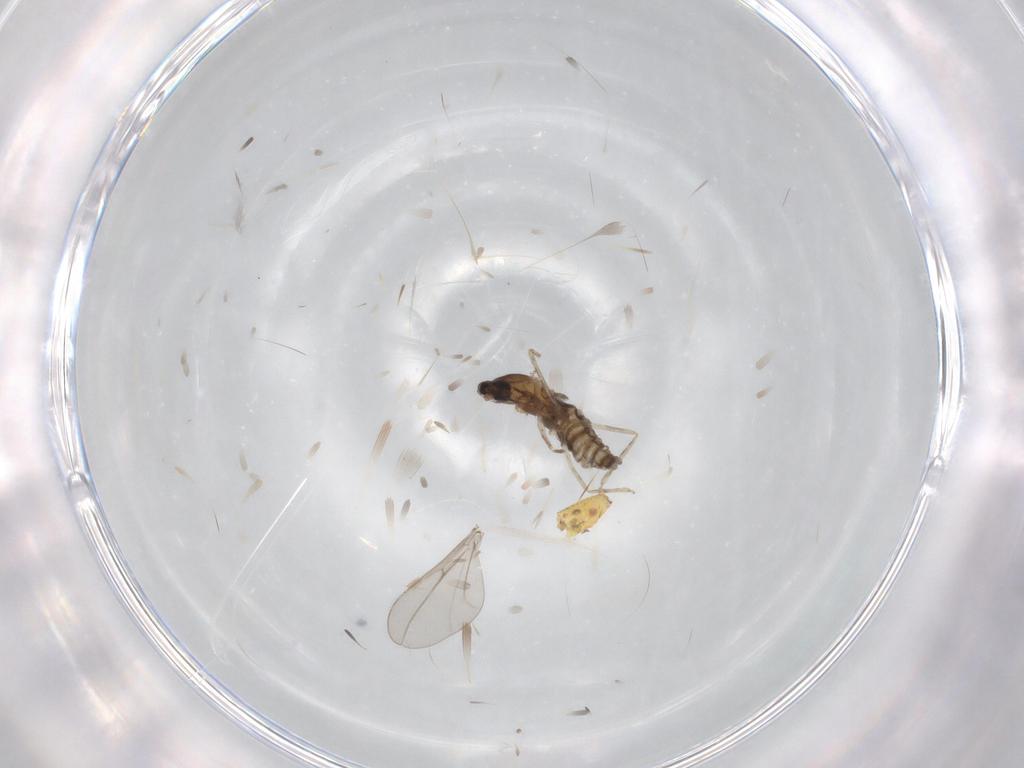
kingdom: Animalia
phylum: Arthropoda
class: Insecta
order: Diptera
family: Cecidomyiidae
